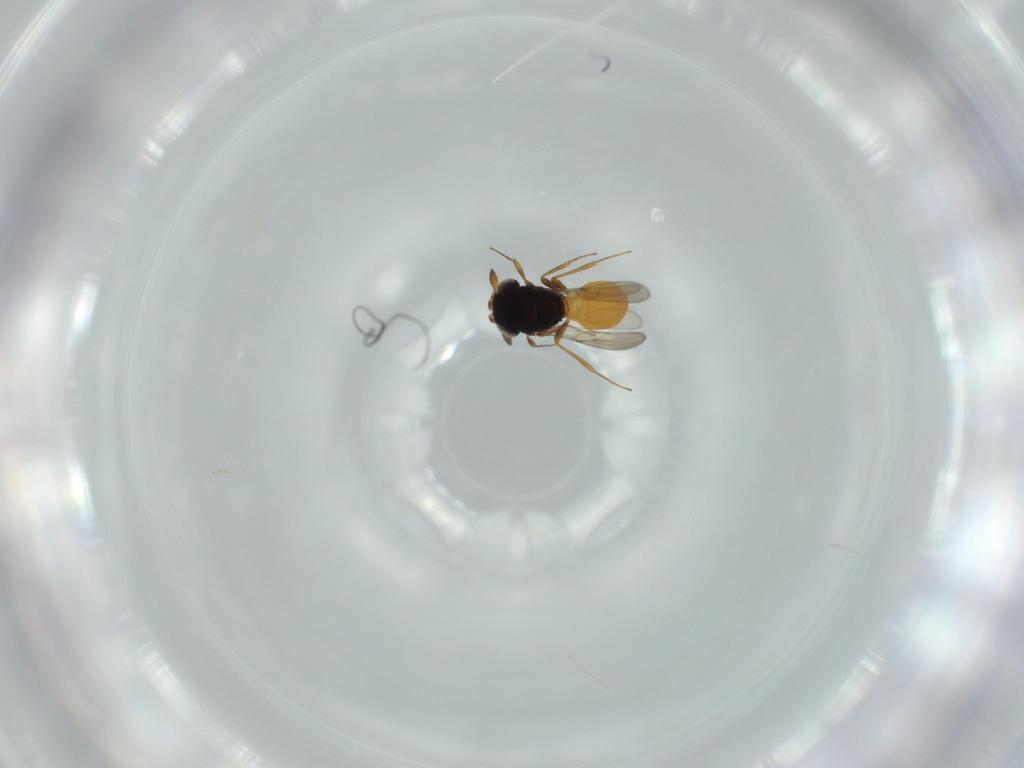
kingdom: Animalia
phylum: Arthropoda
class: Insecta
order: Hymenoptera
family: Scelionidae
